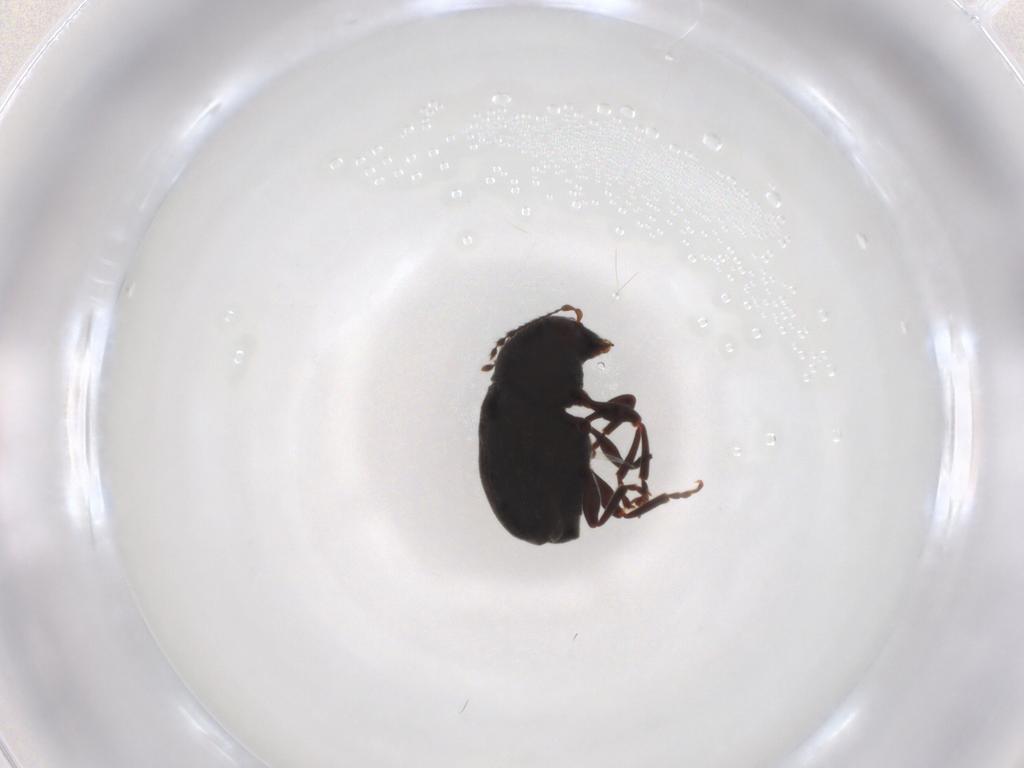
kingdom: Animalia
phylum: Arthropoda
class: Insecta
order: Coleoptera
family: Anthribidae
